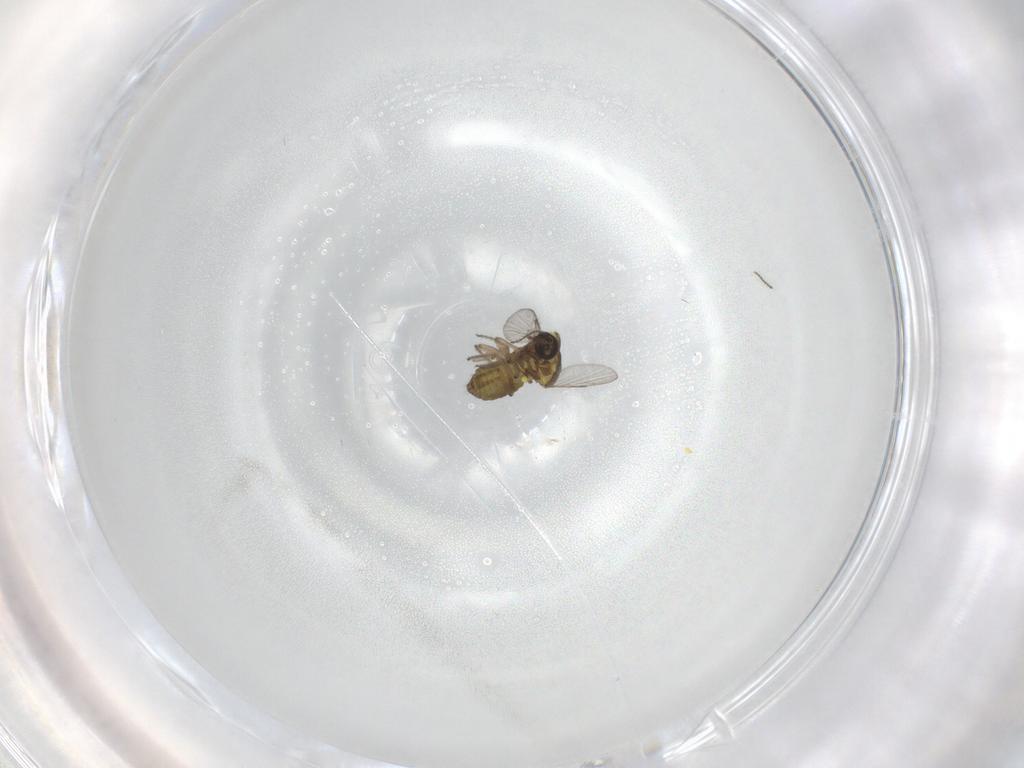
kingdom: Animalia
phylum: Arthropoda
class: Insecta
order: Diptera
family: Ceratopogonidae
